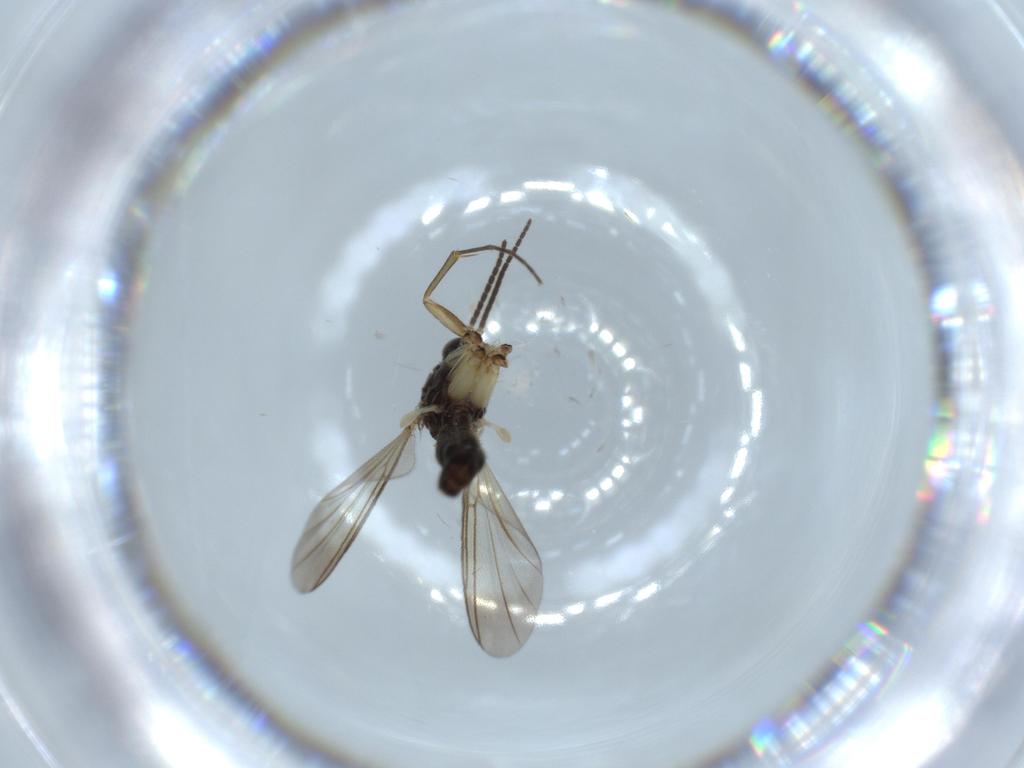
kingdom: Animalia
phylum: Arthropoda
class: Insecta
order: Diptera
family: Mycetophilidae
